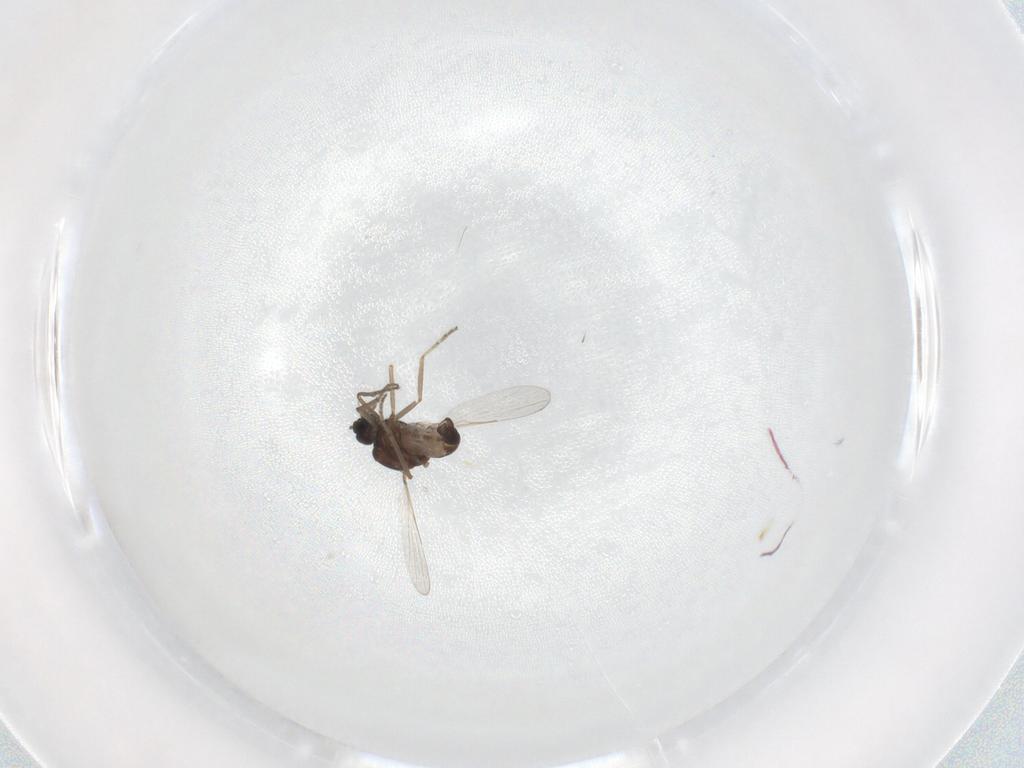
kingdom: Animalia
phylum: Arthropoda
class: Insecta
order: Diptera
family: Ceratopogonidae
